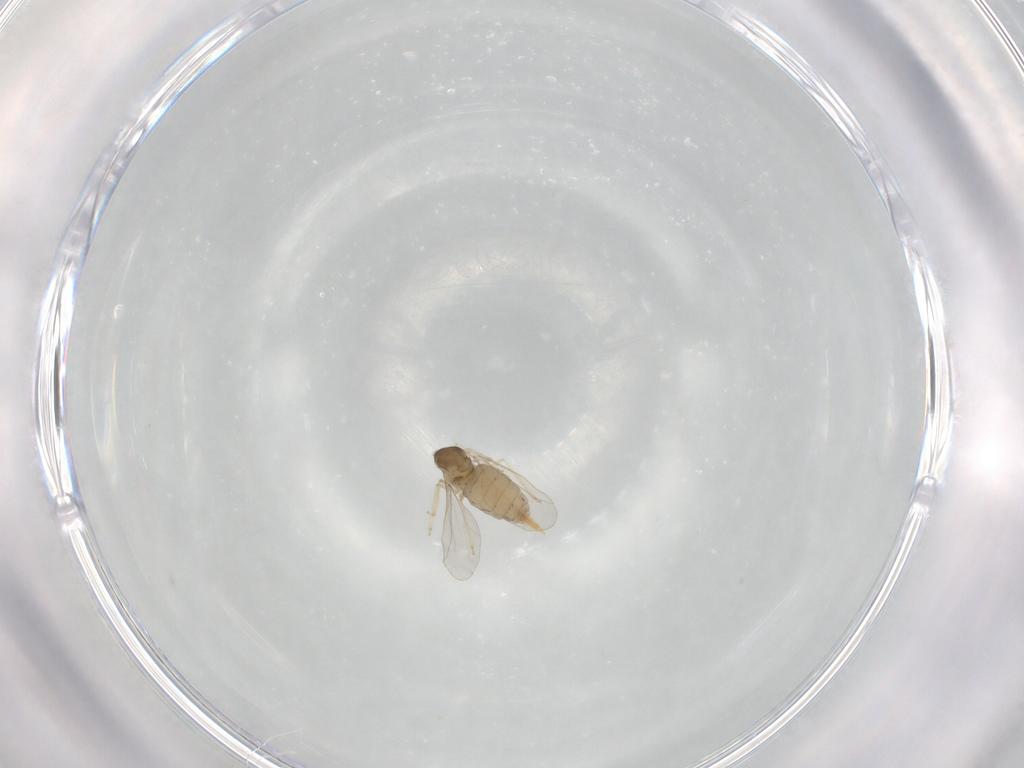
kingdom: Animalia
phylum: Arthropoda
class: Insecta
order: Diptera
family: Cecidomyiidae
